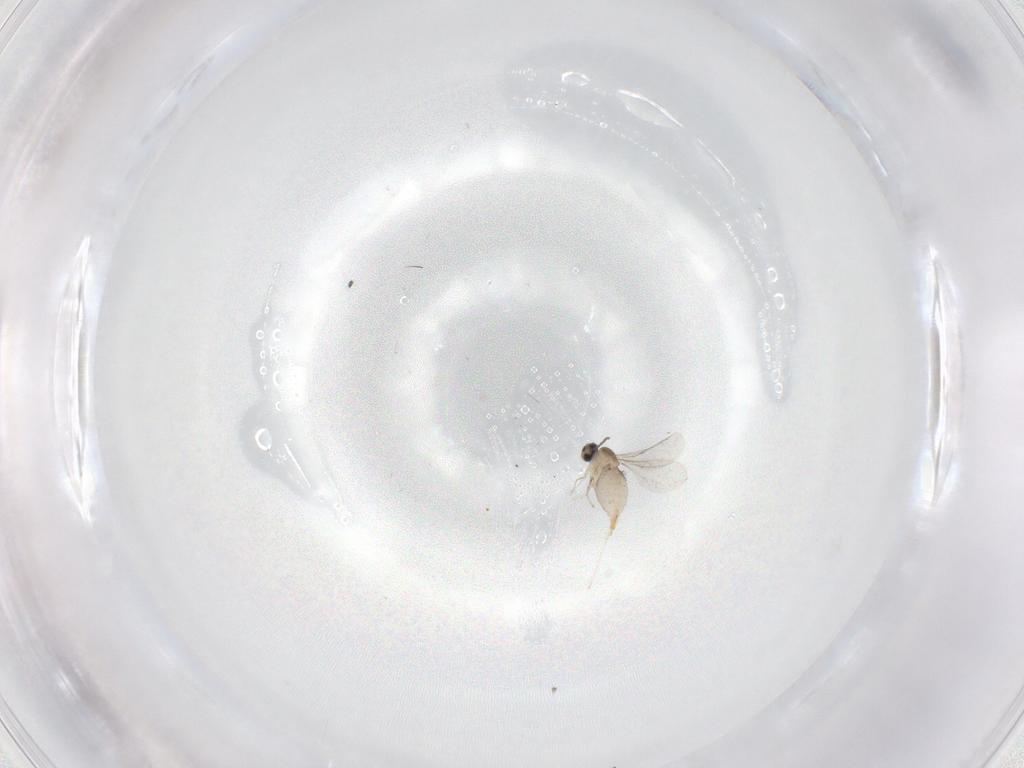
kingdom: Animalia
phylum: Arthropoda
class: Insecta
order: Diptera
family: Cecidomyiidae
